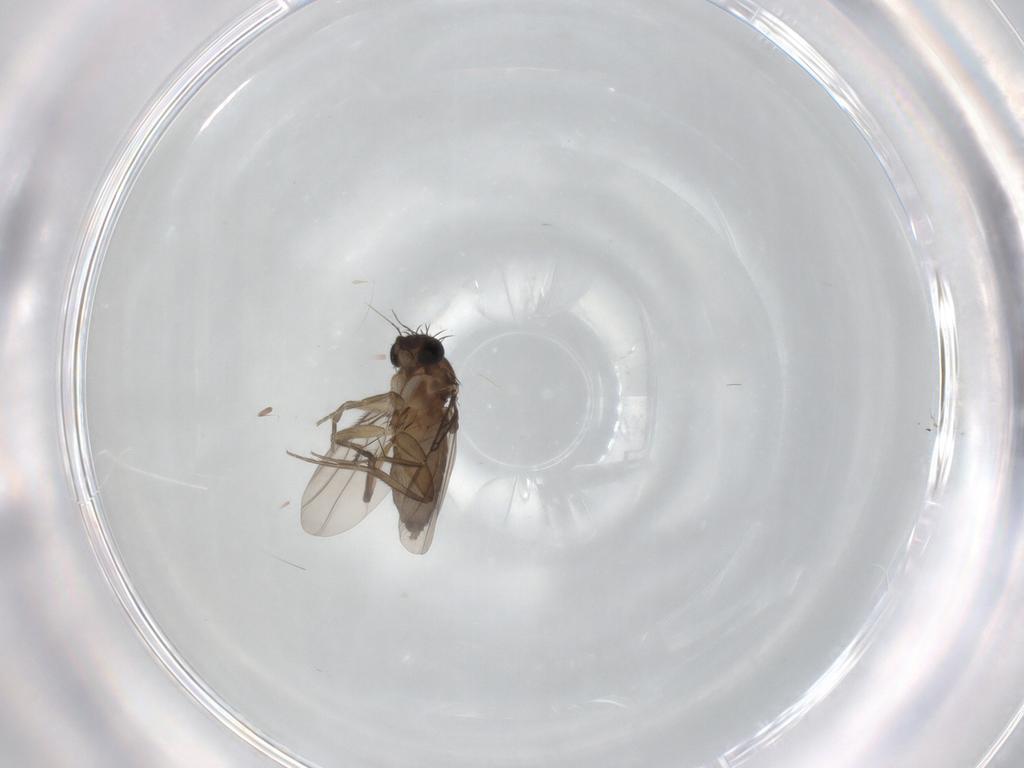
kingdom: Animalia
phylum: Arthropoda
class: Insecta
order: Diptera
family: Phoridae
